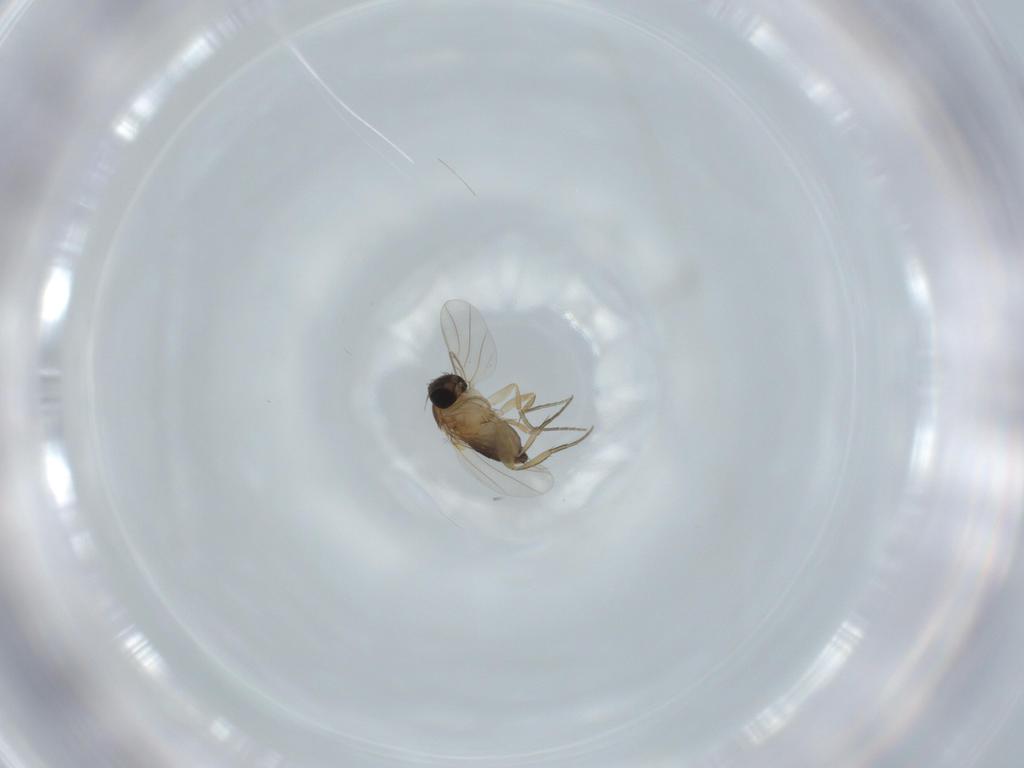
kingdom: Animalia
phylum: Arthropoda
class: Insecta
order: Diptera
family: Phoridae
